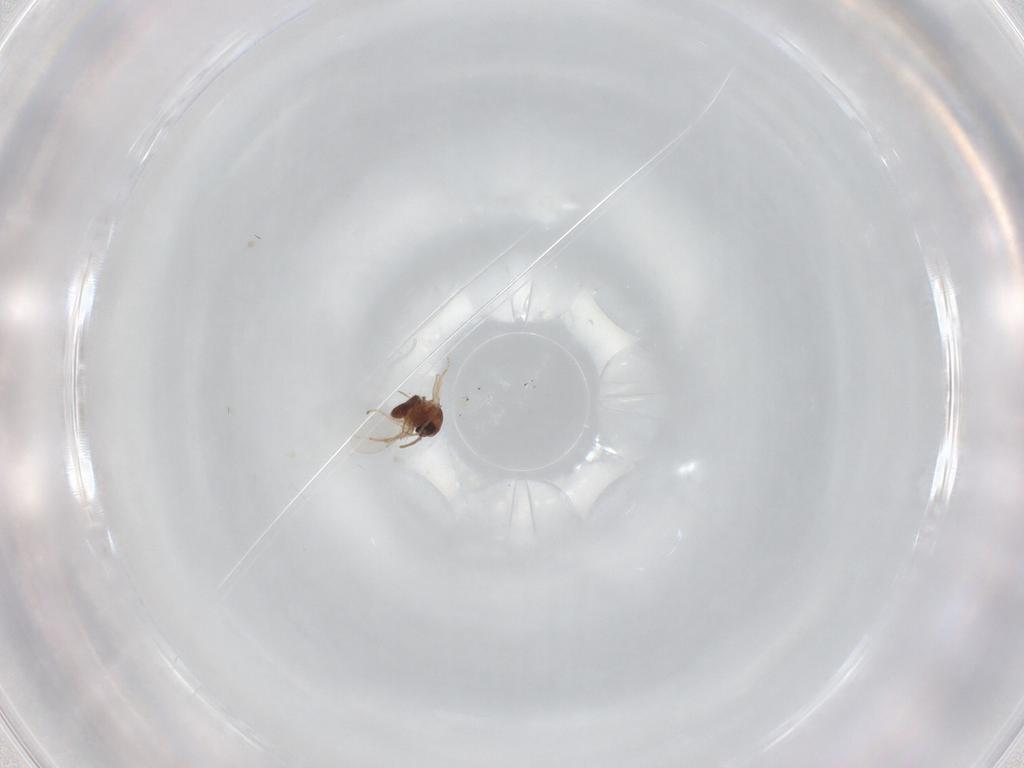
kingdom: Animalia
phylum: Arthropoda
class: Insecta
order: Diptera
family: Ceratopogonidae
